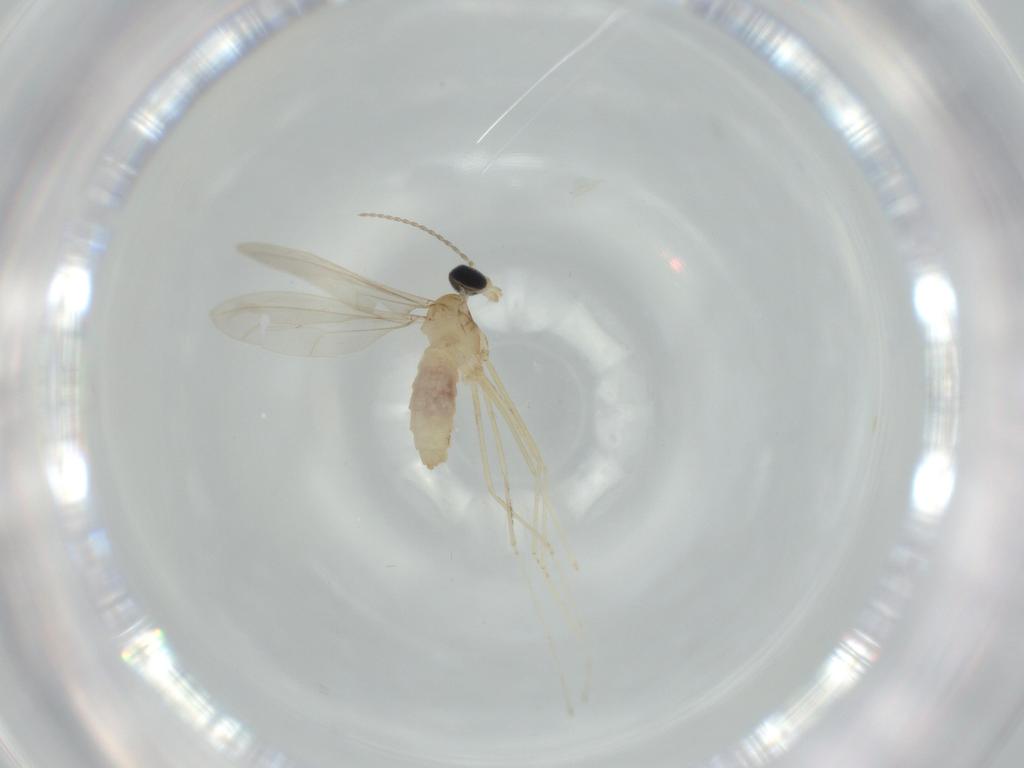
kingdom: Animalia
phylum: Arthropoda
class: Insecta
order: Diptera
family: Cecidomyiidae
